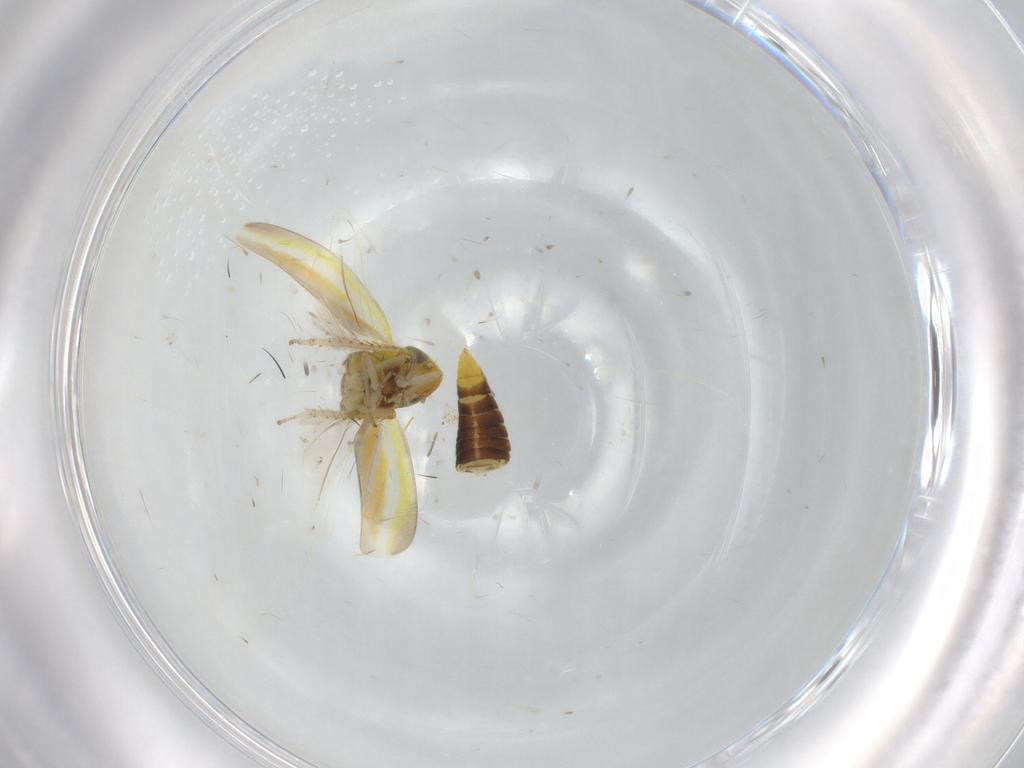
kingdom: Animalia
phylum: Arthropoda
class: Insecta
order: Hemiptera
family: Cicadellidae
